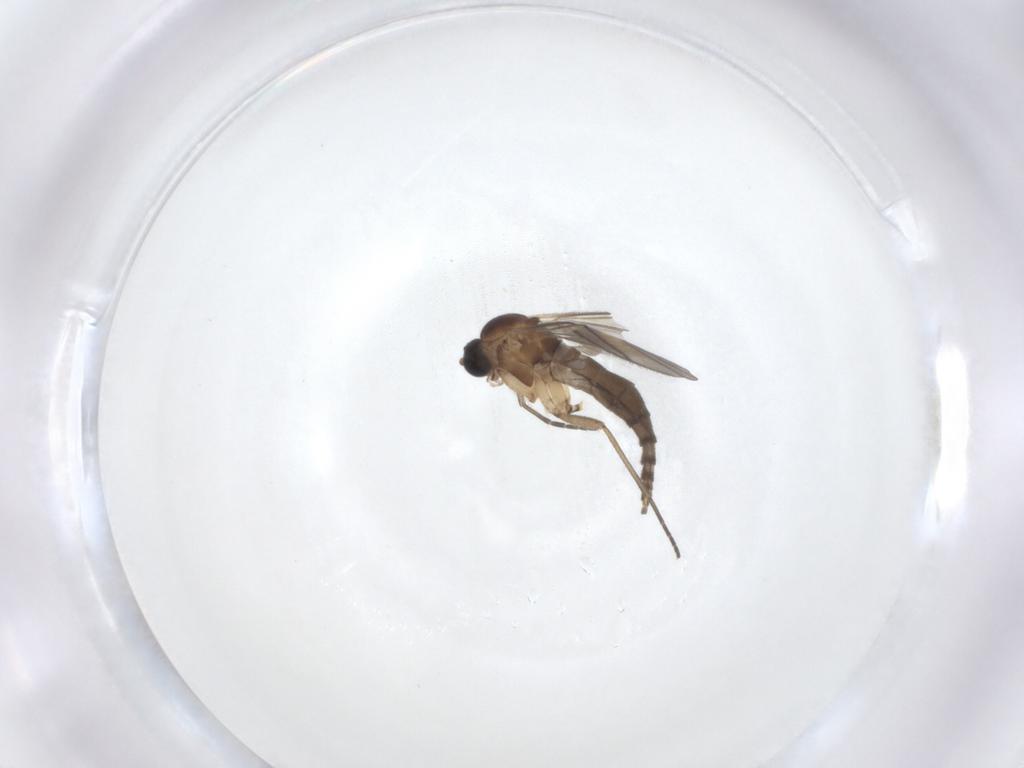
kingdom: Animalia
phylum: Arthropoda
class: Insecta
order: Diptera
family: Sciaridae
